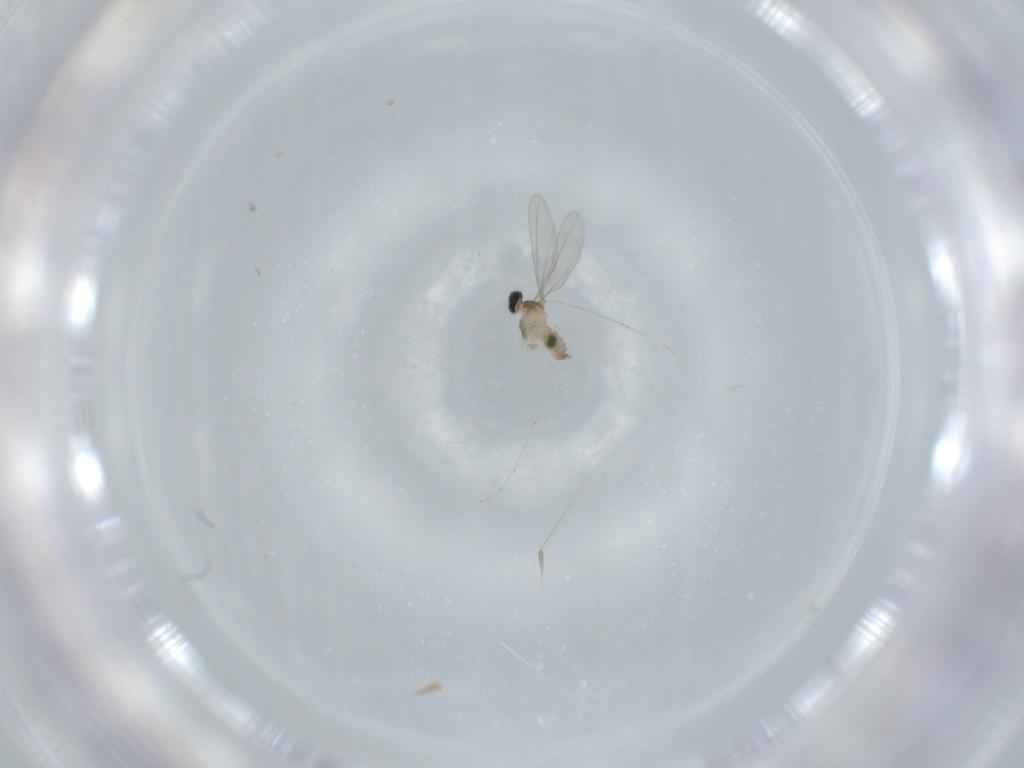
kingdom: Animalia
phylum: Arthropoda
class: Insecta
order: Diptera
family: Cecidomyiidae
